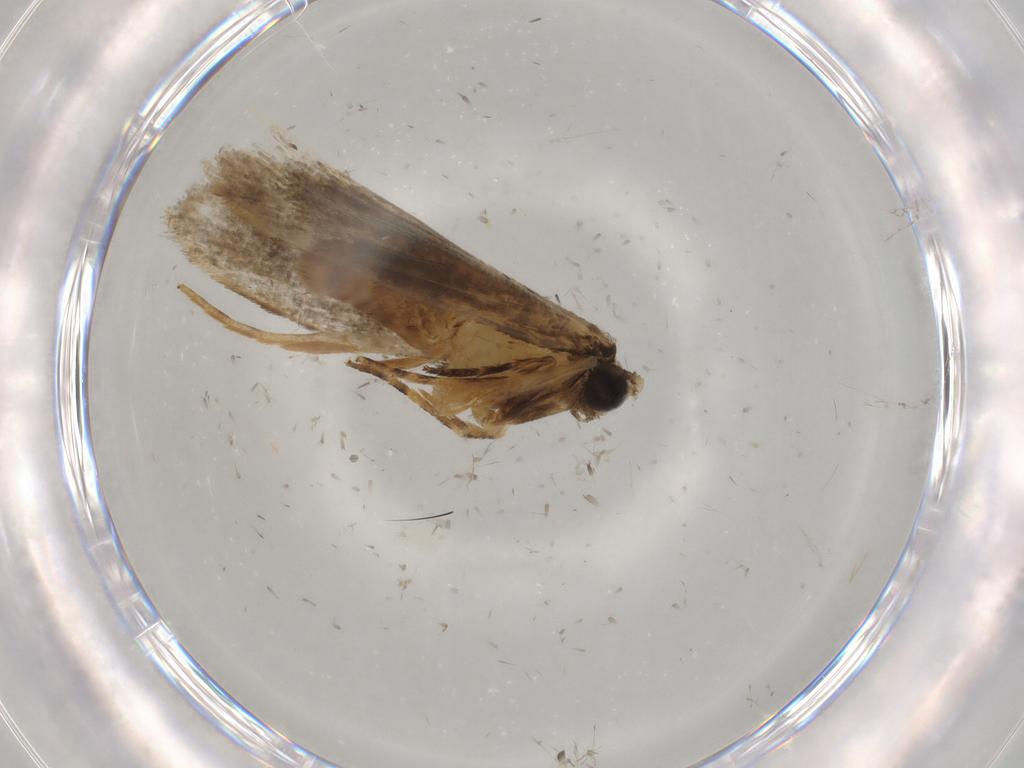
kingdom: Animalia
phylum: Arthropoda
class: Insecta
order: Lepidoptera
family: Tineidae
